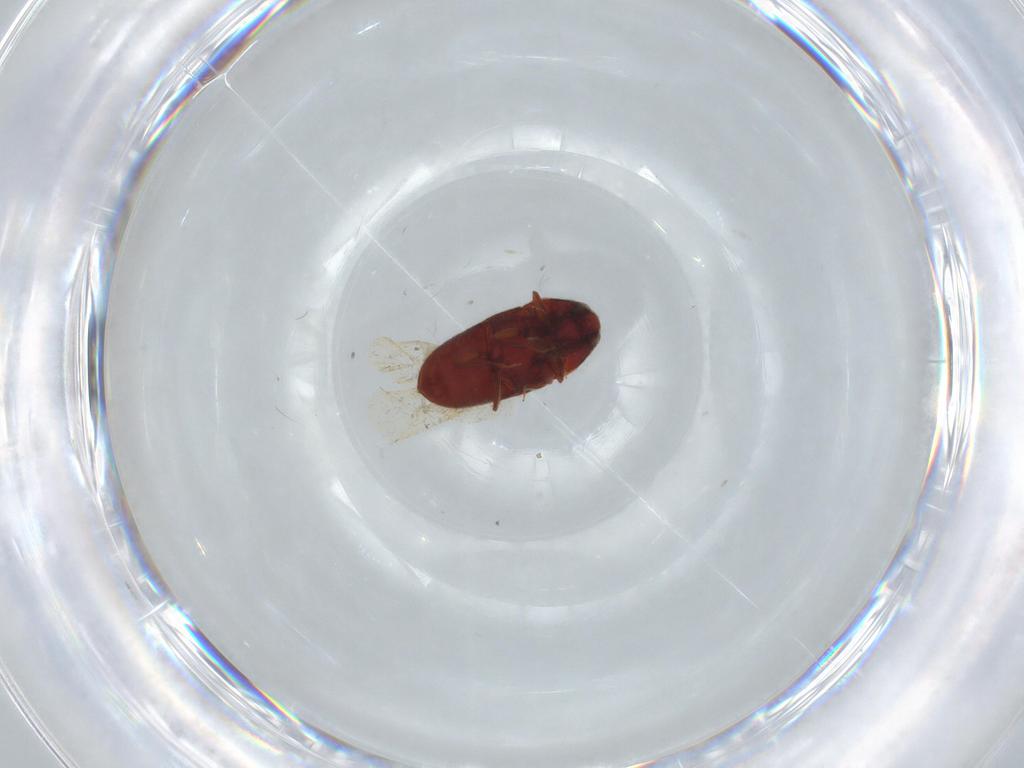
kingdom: Animalia
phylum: Arthropoda
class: Insecta
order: Coleoptera
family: Throscidae
